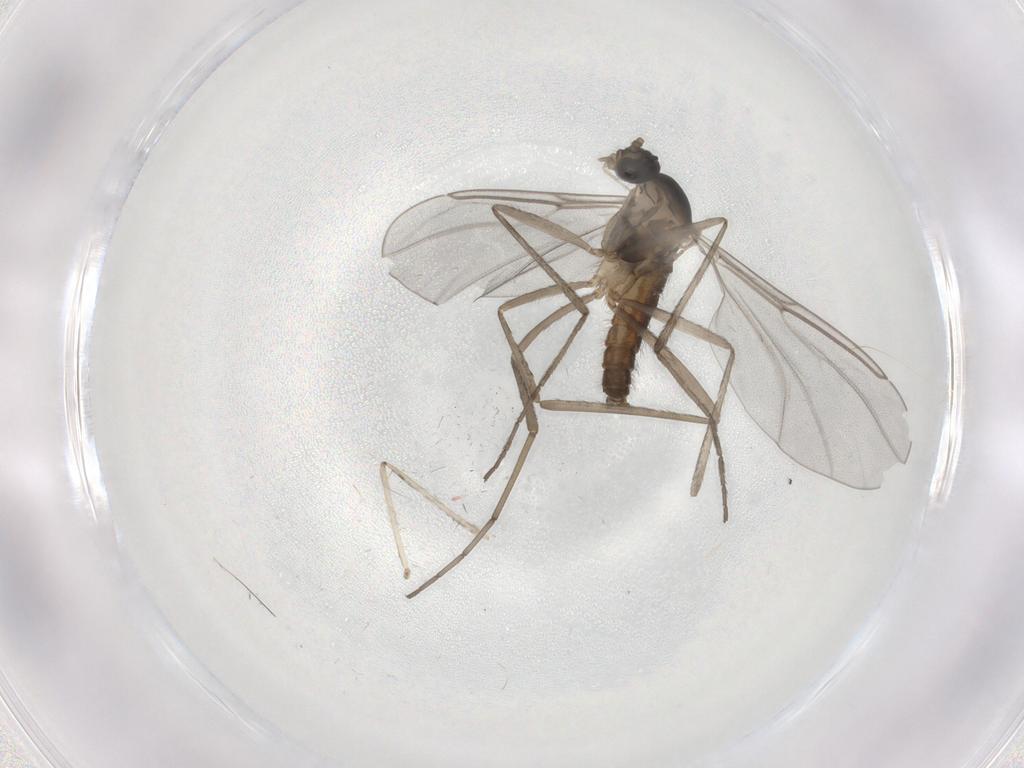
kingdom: Animalia
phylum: Arthropoda
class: Insecta
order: Diptera
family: Cecidomyiidae
